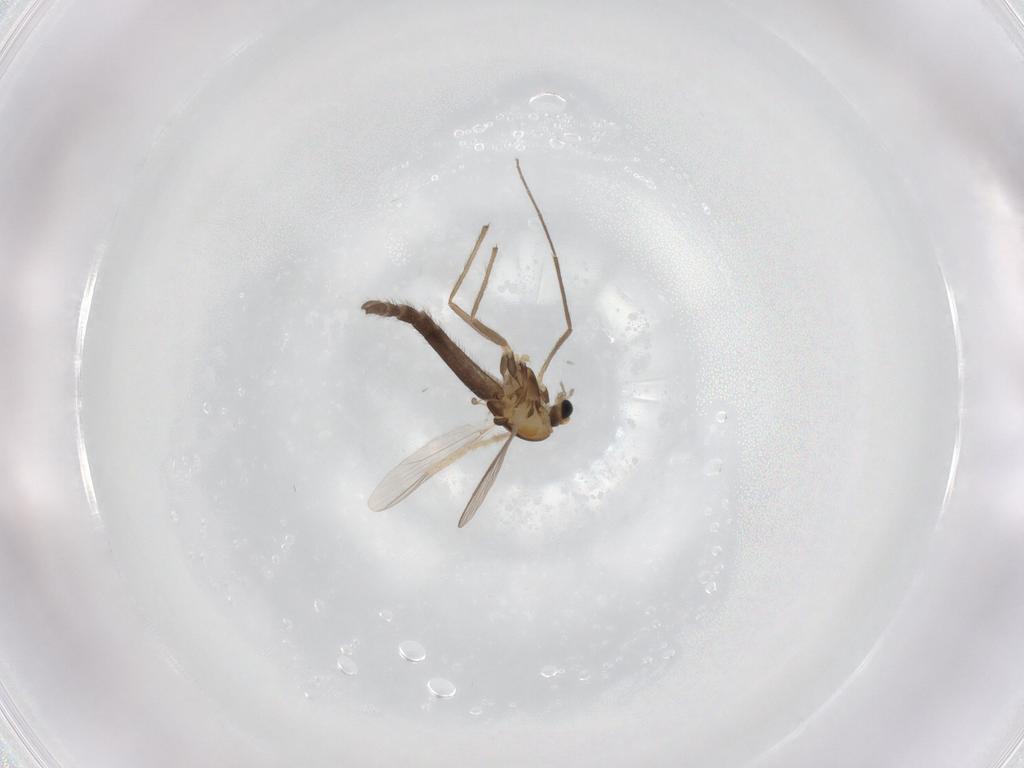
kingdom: Animalia
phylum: Arthropoda
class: Insecta
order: Diptera
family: Chironomidae
